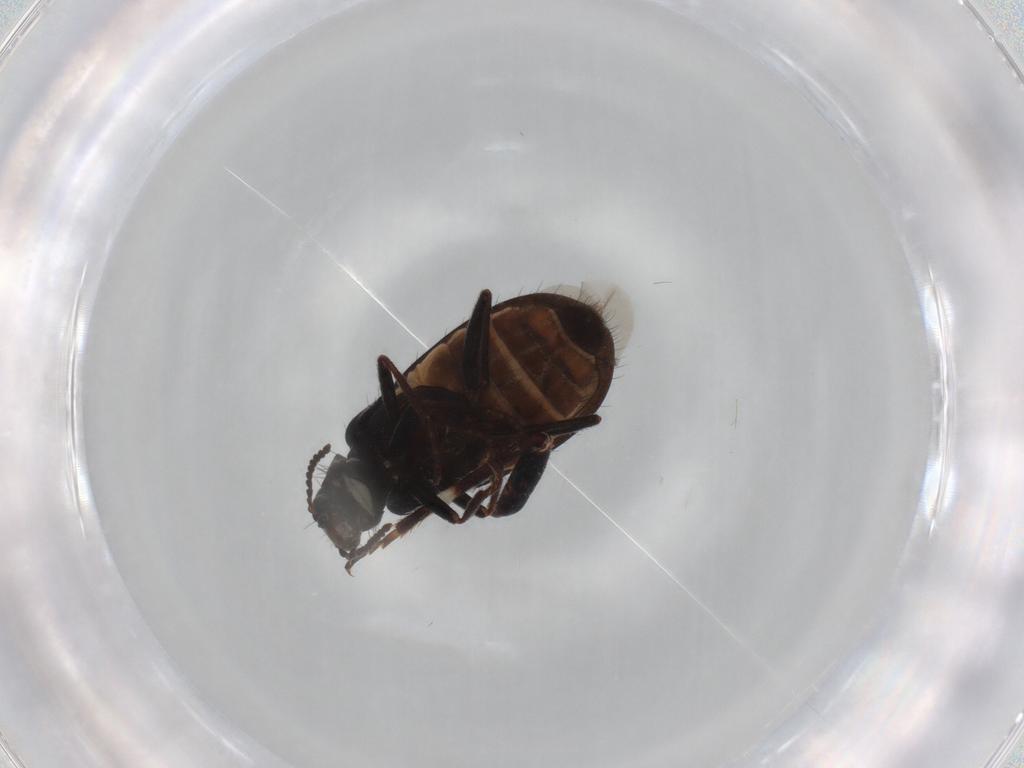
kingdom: Animalia
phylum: Arthropoda
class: Insecta
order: Coleoptera
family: Melyridae
